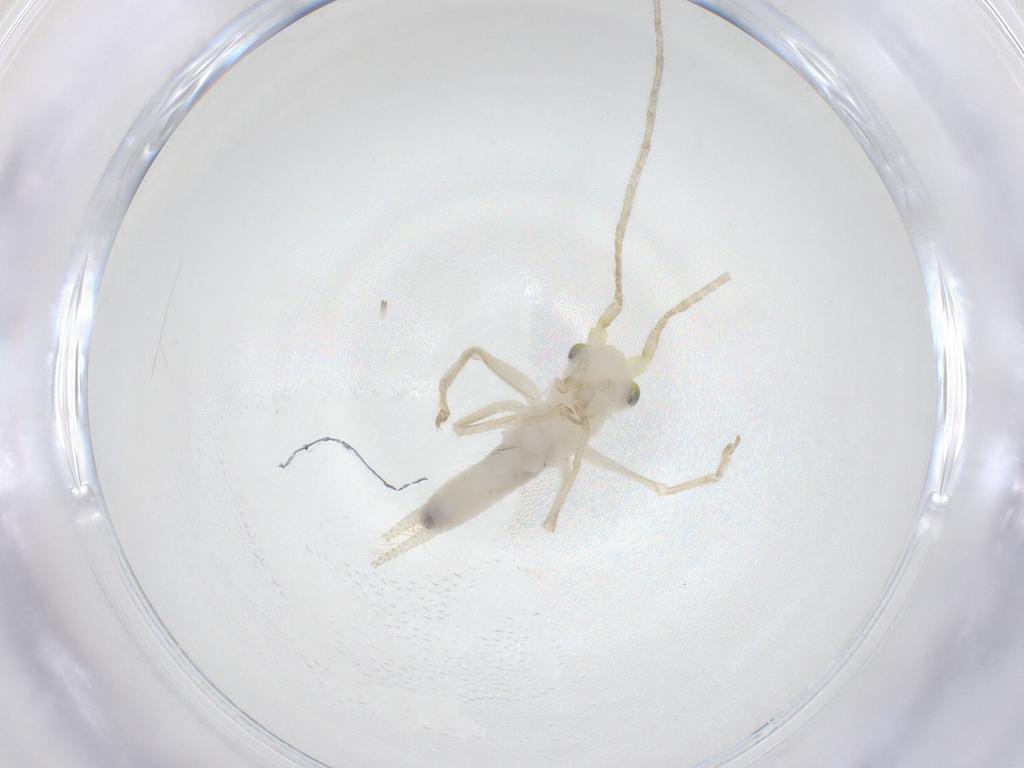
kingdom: Animalia
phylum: Arthropoda
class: Insecta
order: Orthoptera
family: Trigonidiidae
